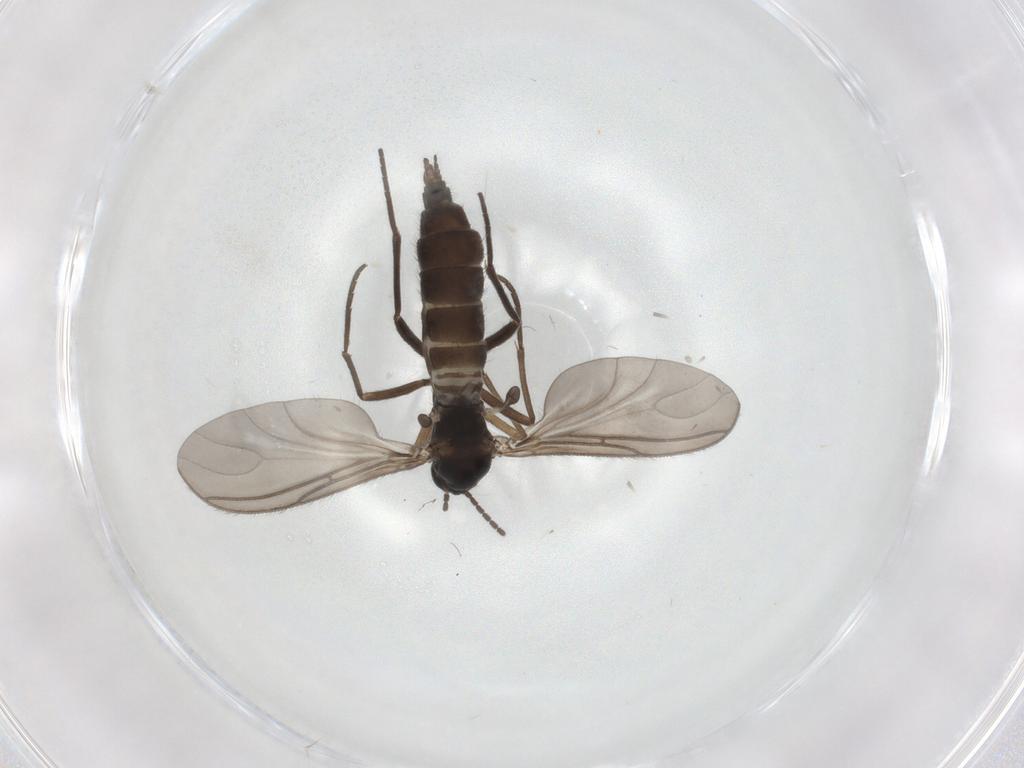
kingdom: Animalia
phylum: Arthropoda
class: Insecta
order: Diptera
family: Sciaridae
